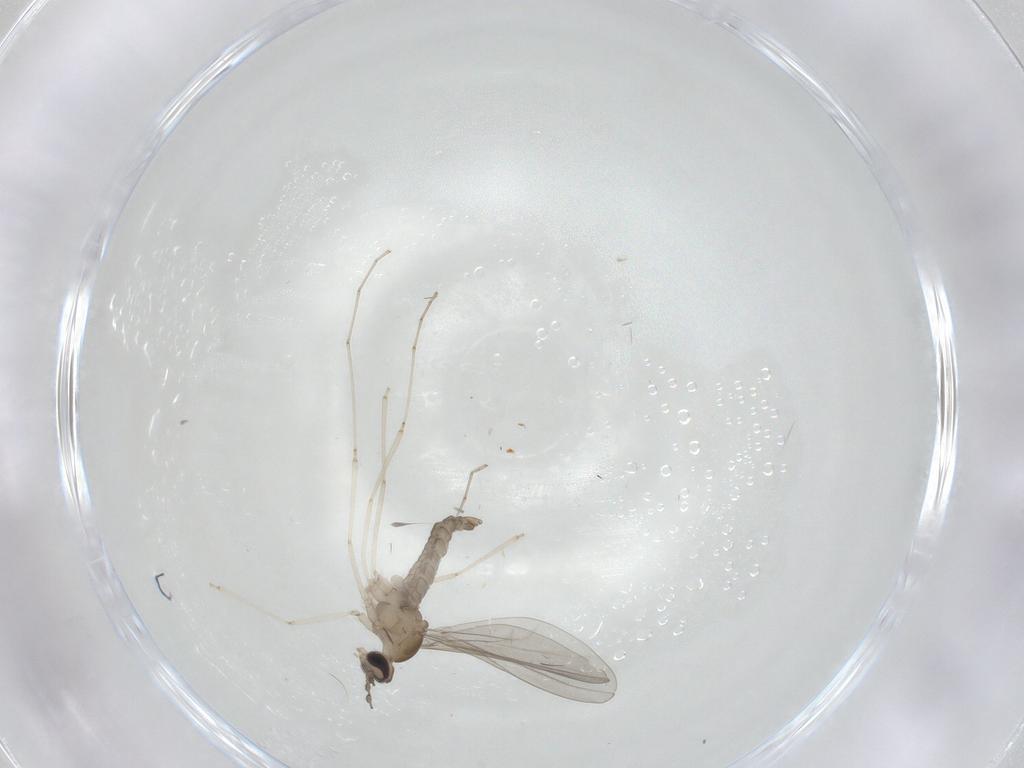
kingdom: Animalia
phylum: Arthropoda
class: Insecta
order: Diptera
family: Cecidomyiidae
